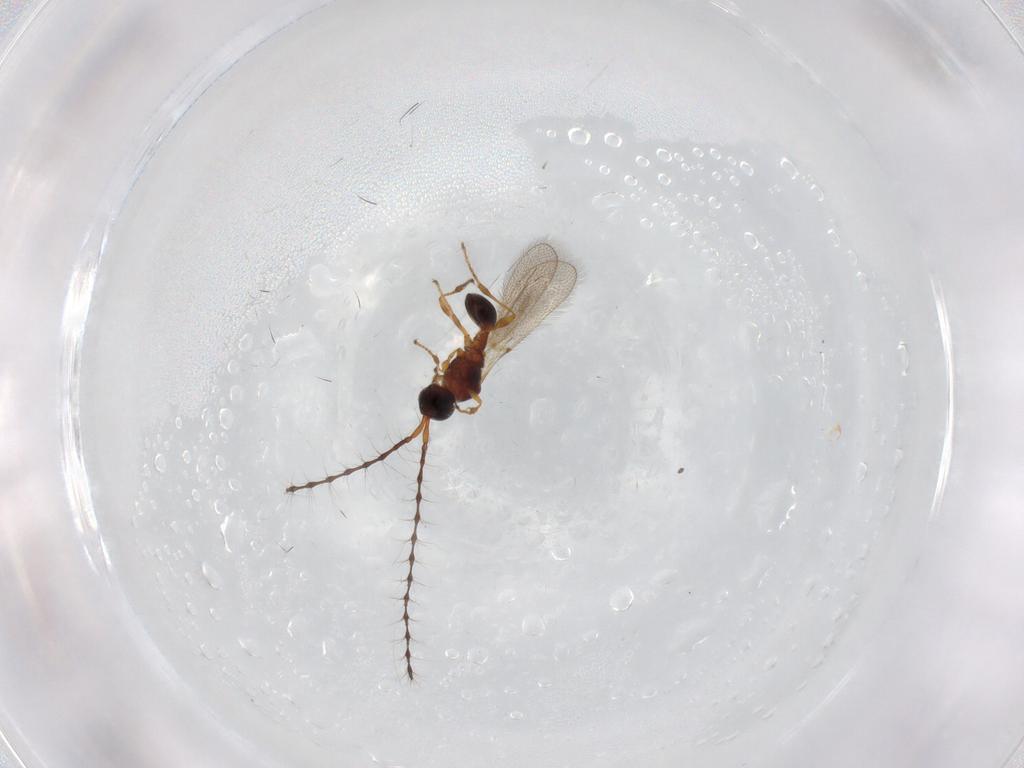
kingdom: Animalia
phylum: Arthropoda
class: Insecta
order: Hymenoptera
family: Diapriidae
